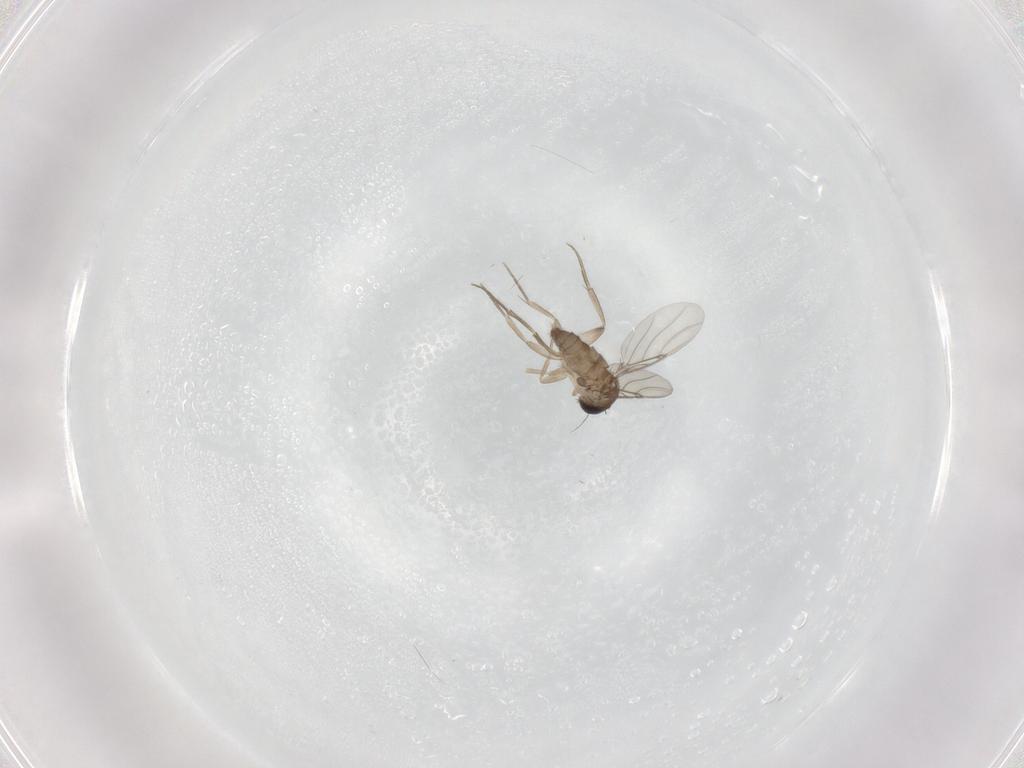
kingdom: Animalia
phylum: Arthropoda
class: Insecta
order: Diptera
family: Phoridae
